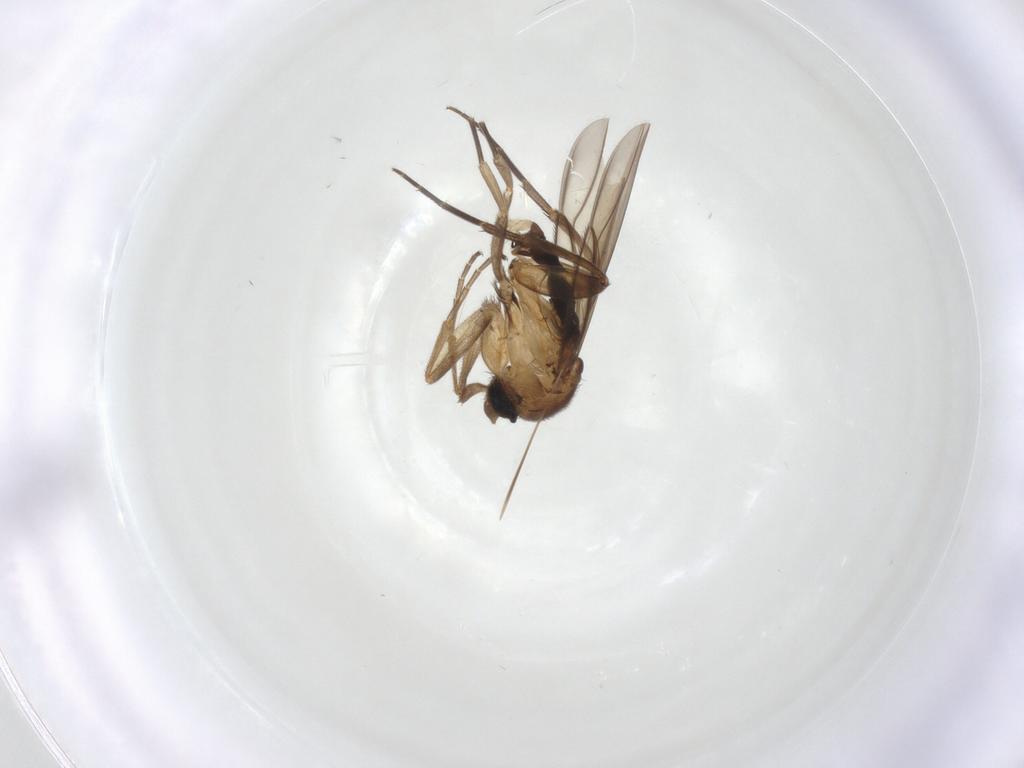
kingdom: Animalia
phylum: Arthropoda
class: Insecta
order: Diptera
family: Phoridae
